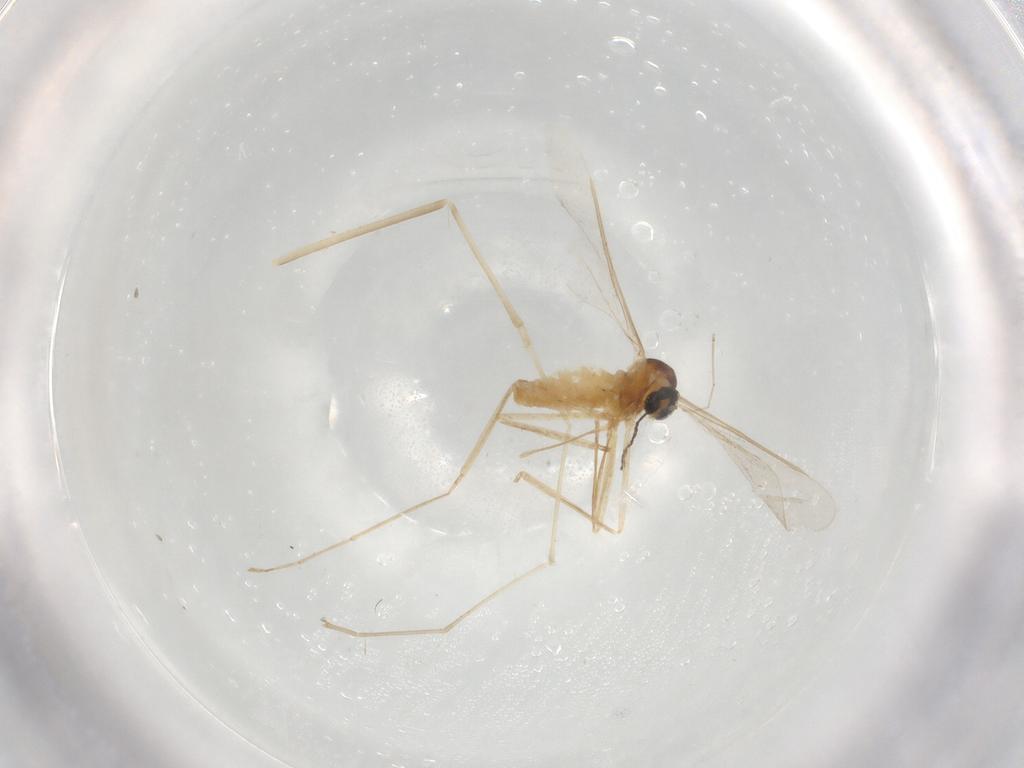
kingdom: Animalia
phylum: Arthropoda
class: Insecta
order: Diptera
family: Cecidomyiidae
